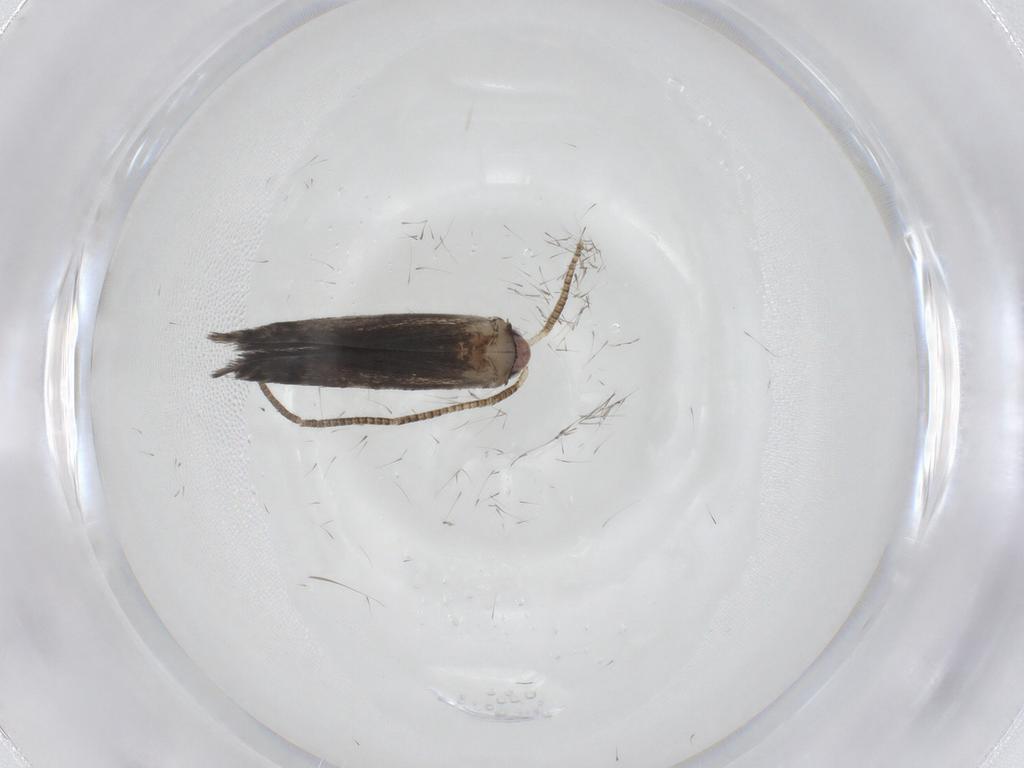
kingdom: Animalia
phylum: Arthropoda
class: Insecta
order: Lepidoptera
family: Tineidae
